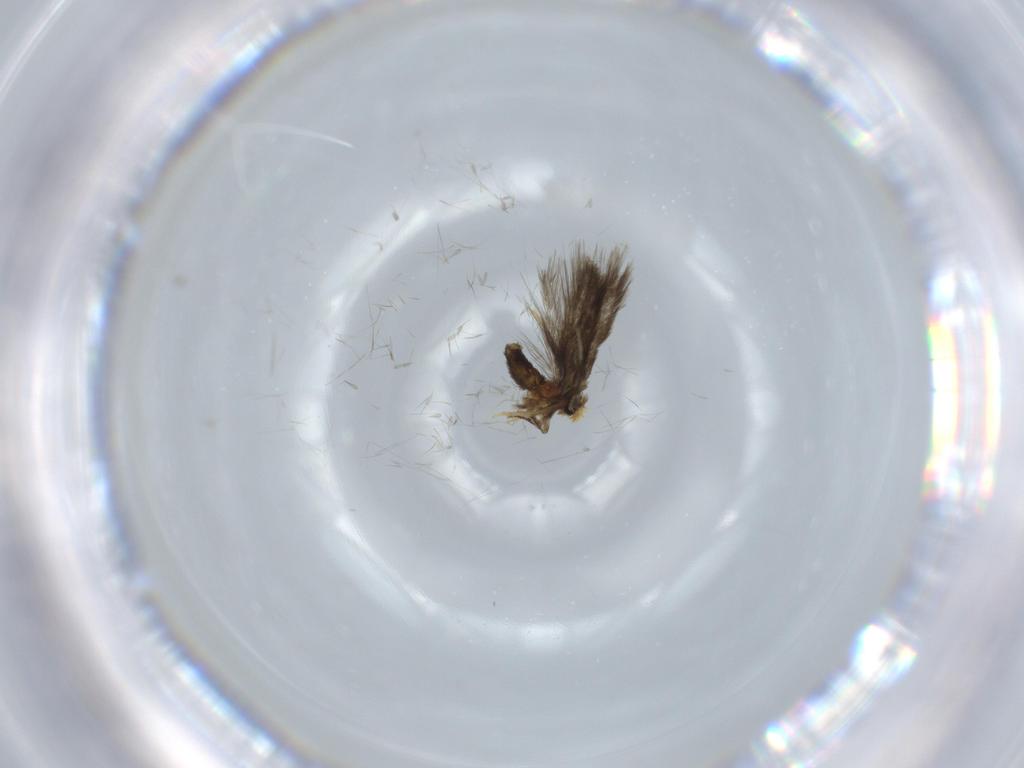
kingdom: Animalia
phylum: Arthropoda
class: Insecta
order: Lepidoptera
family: Nepticulidae
